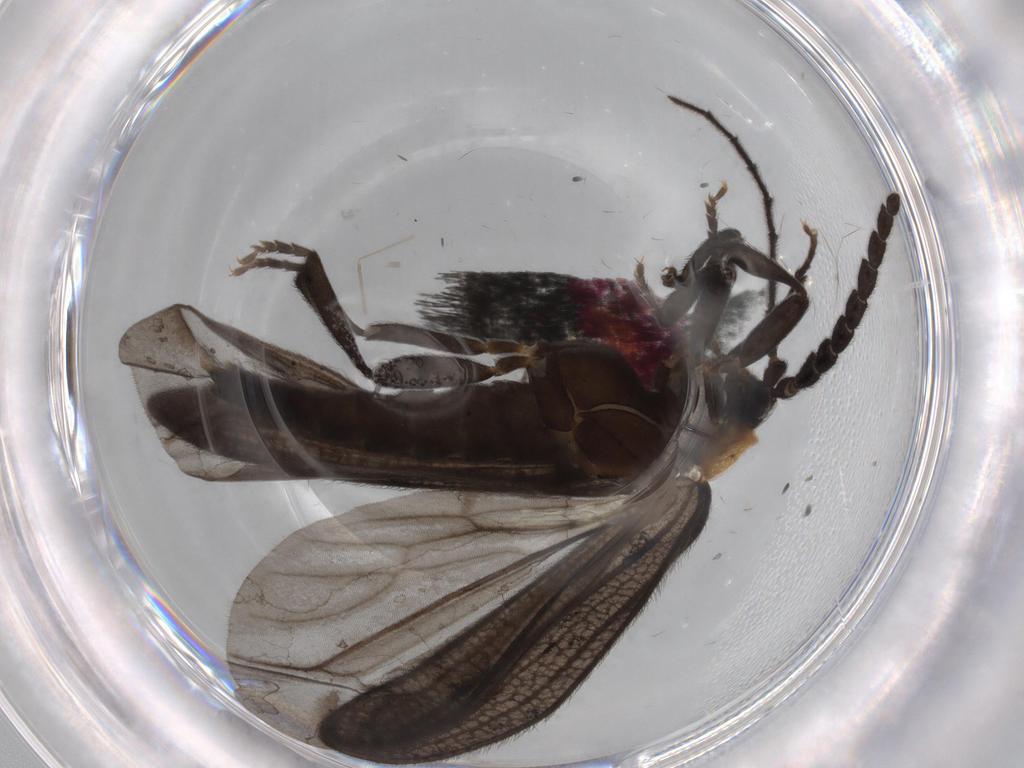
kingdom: Animalia
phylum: Arthropoda
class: Insecta
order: Coleoptera
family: Lycidae
